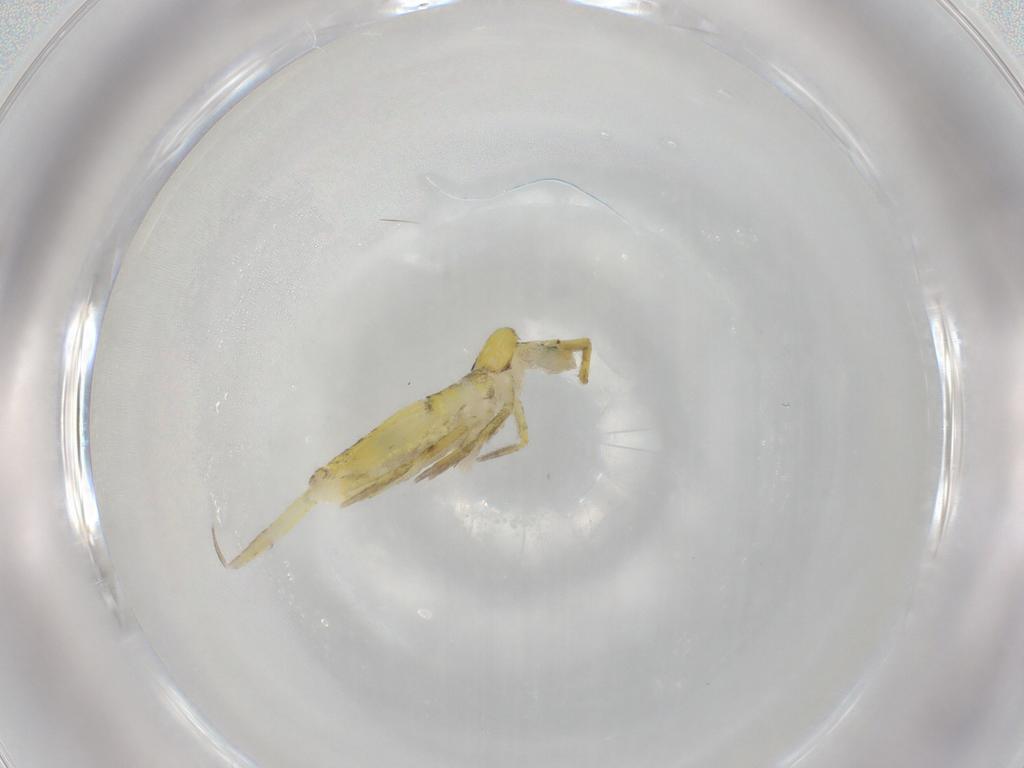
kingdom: Animalia
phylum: Arthropoda
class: Collembola
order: Entomobryomorpha
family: Entomobryidae
